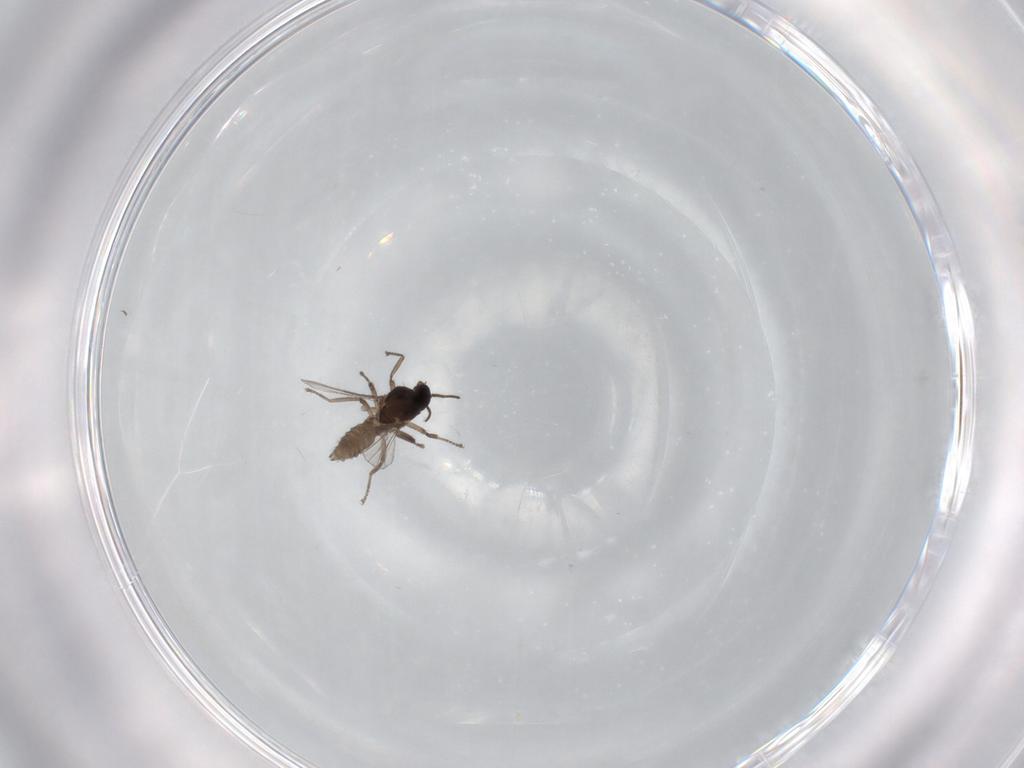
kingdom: Animalia
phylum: Arthropoda
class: Insecta
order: Diptera
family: Ceratopogonidae
